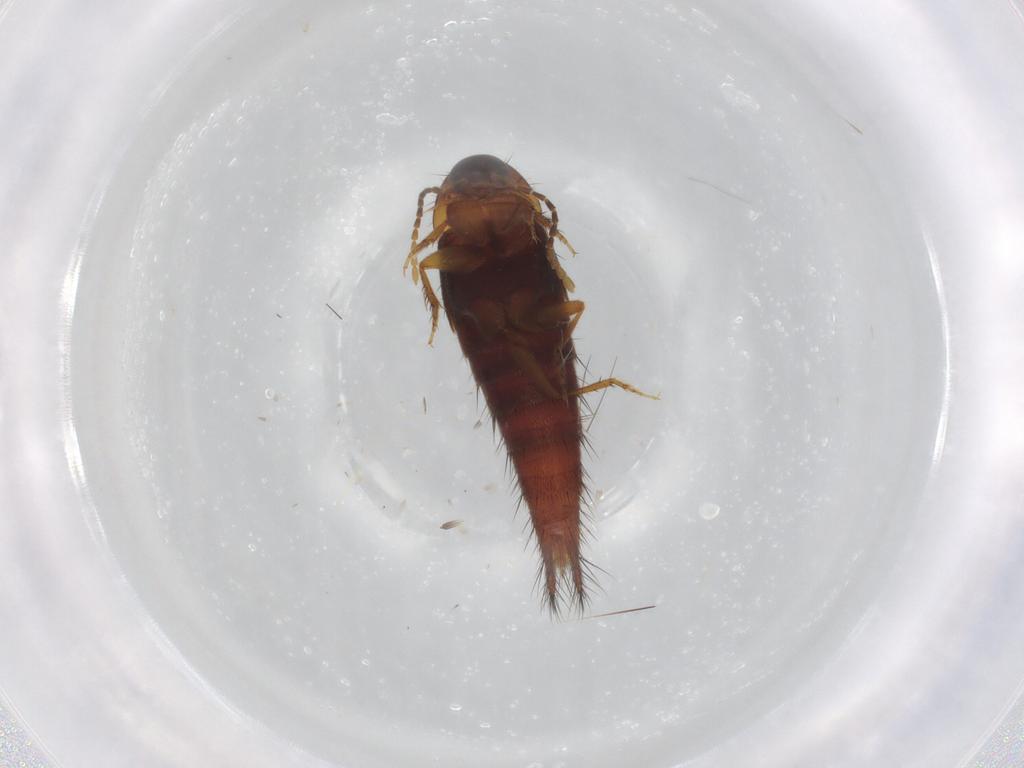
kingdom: Animalia
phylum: Arthropoda
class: Insecta
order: Coleoptera
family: Staphylinidae
